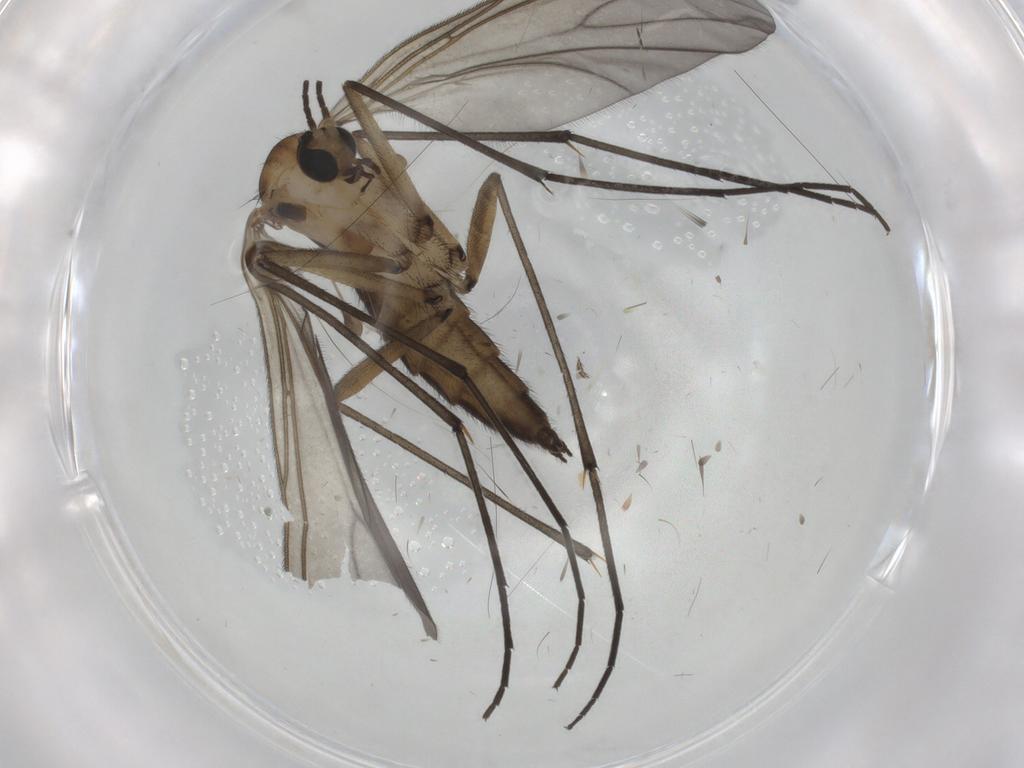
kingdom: Animalia
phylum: Arthropoda
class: Insecta
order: Diptera
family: Sciaridae
